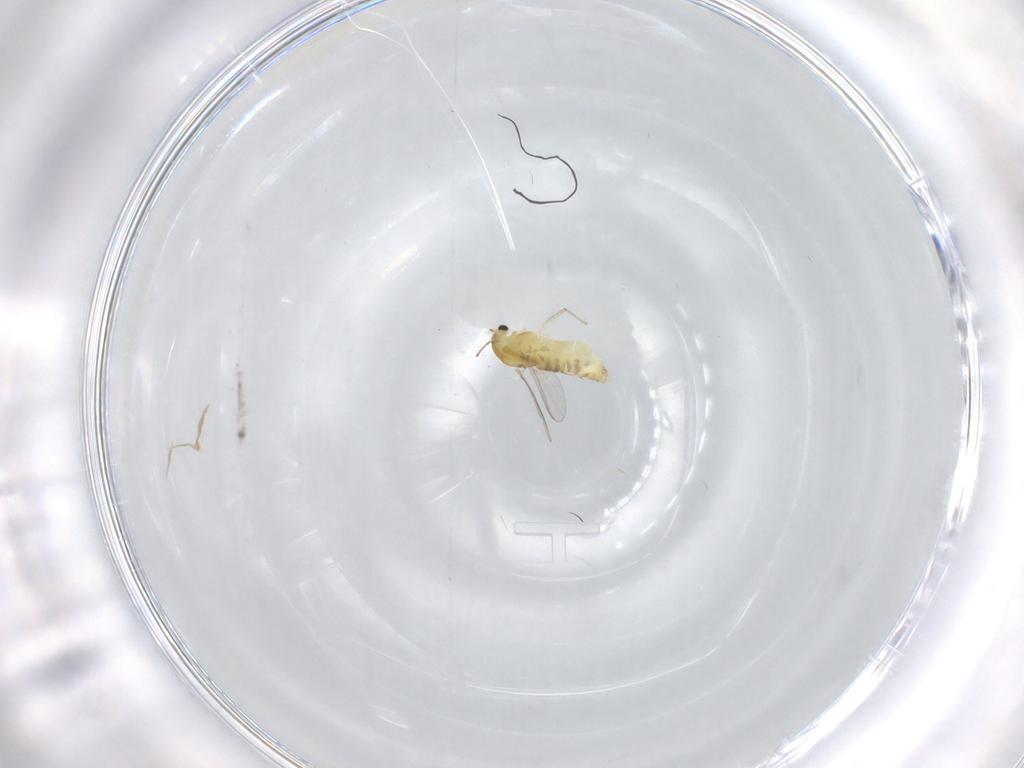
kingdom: Animalia
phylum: Arthropoda
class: Insecta
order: Diptera
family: Chironomidae
